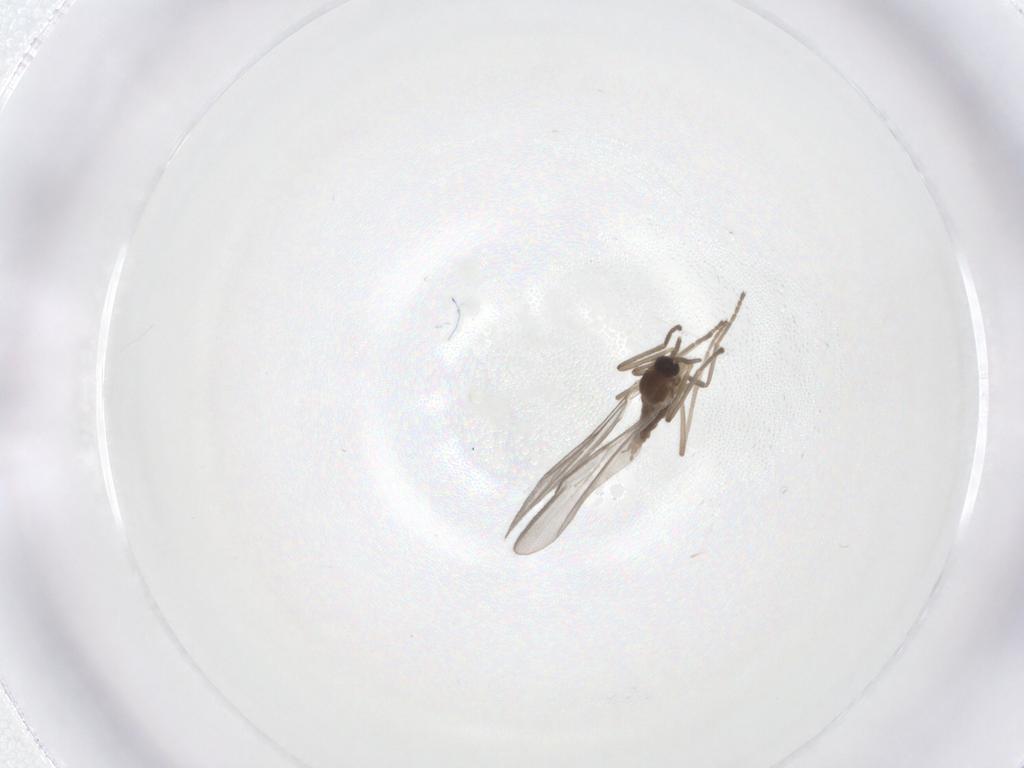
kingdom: Animalia
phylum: Arthropoda
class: Insecta
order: Diptera
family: Cecidomyiidae
